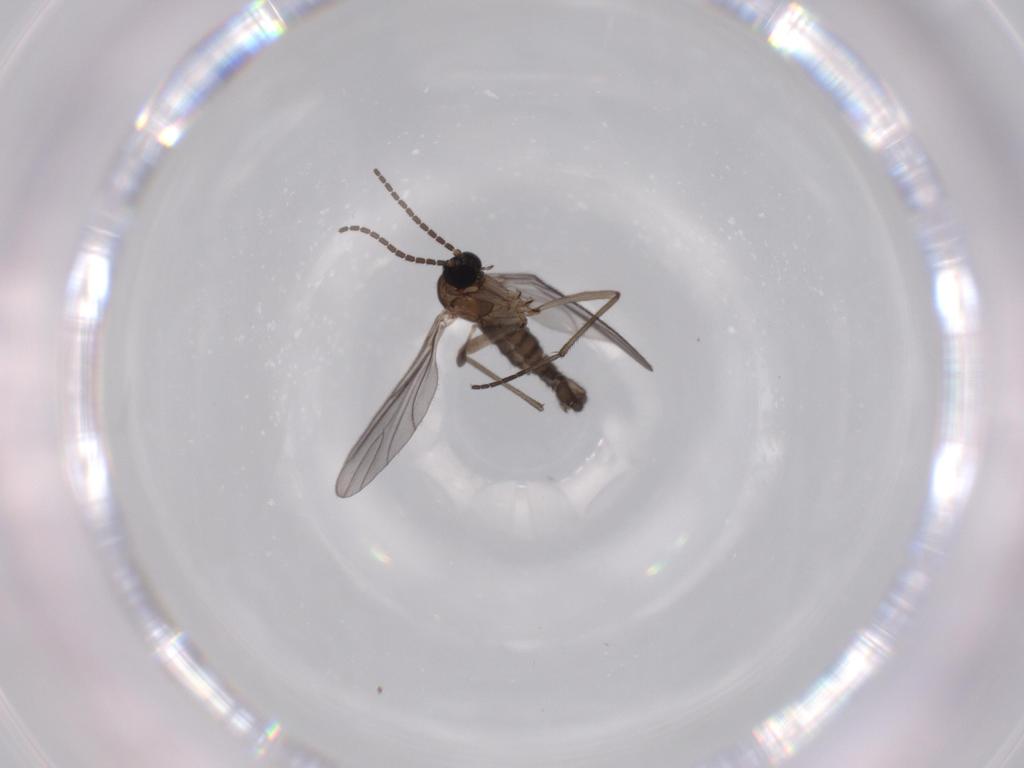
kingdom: Animalia
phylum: Arthropoda
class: Insecta
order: Diptera
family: Sciaridae
